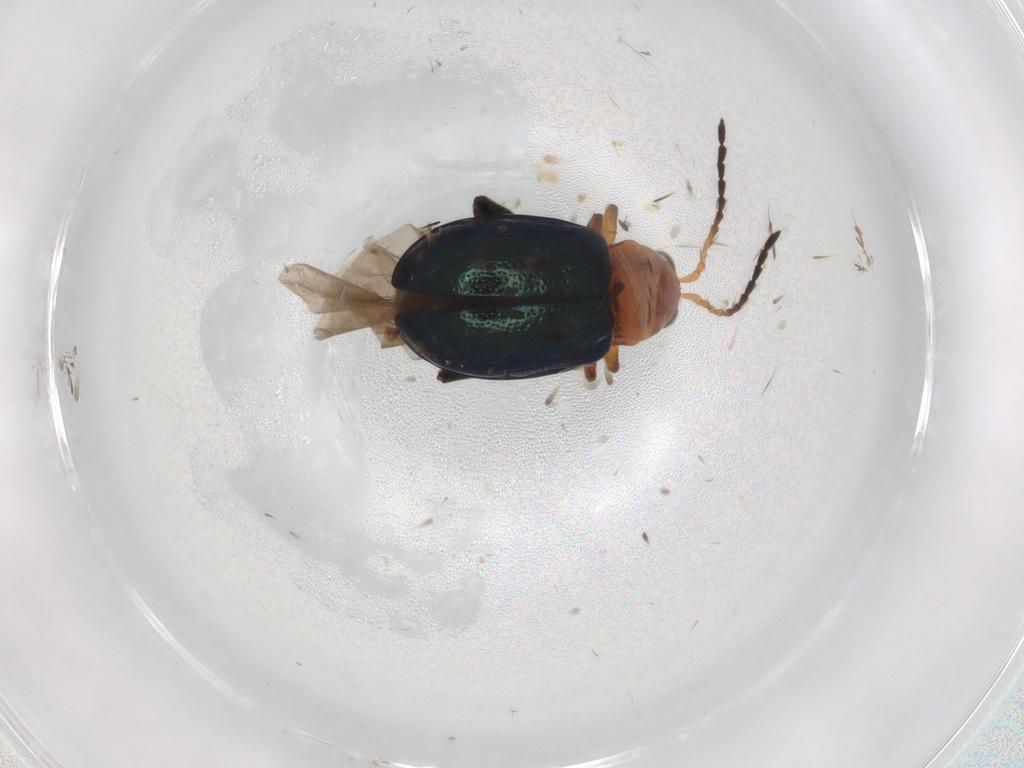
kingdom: Animalia
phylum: Arthropoda
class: Insecta
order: Coleoptera
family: Chrysomelidae
